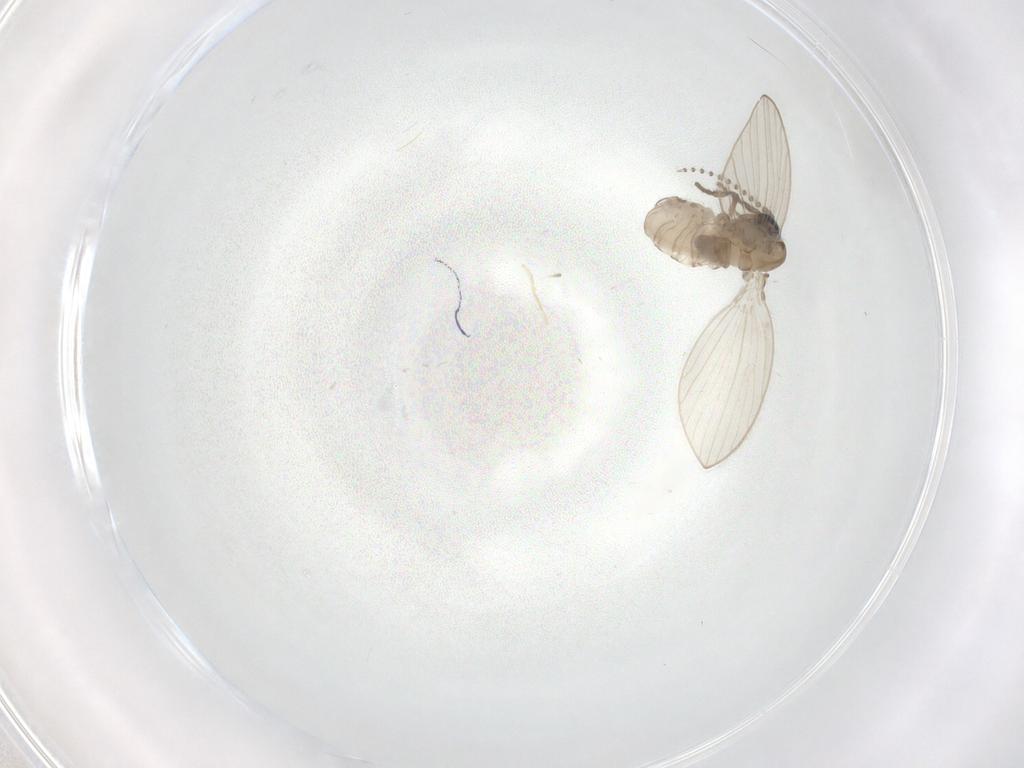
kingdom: Animalia
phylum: Arthropoda
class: Insecta
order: Diptera
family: Psychodidae
